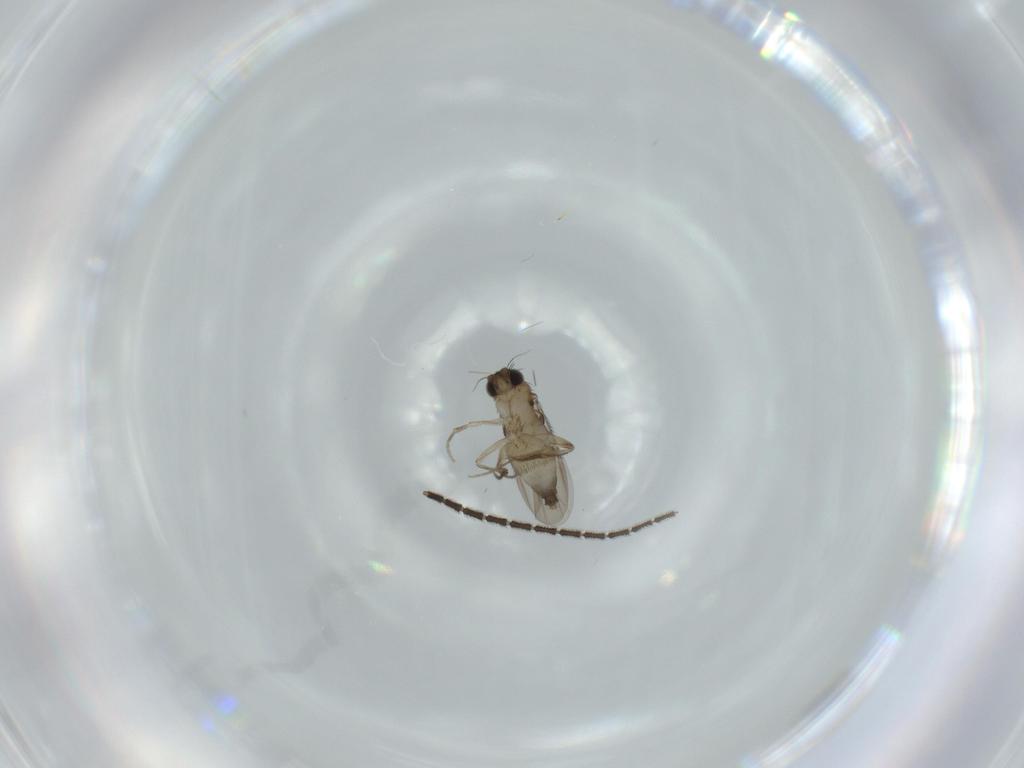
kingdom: Animalia
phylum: Arthropoda
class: Insecta
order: Diptera
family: Phoridae
